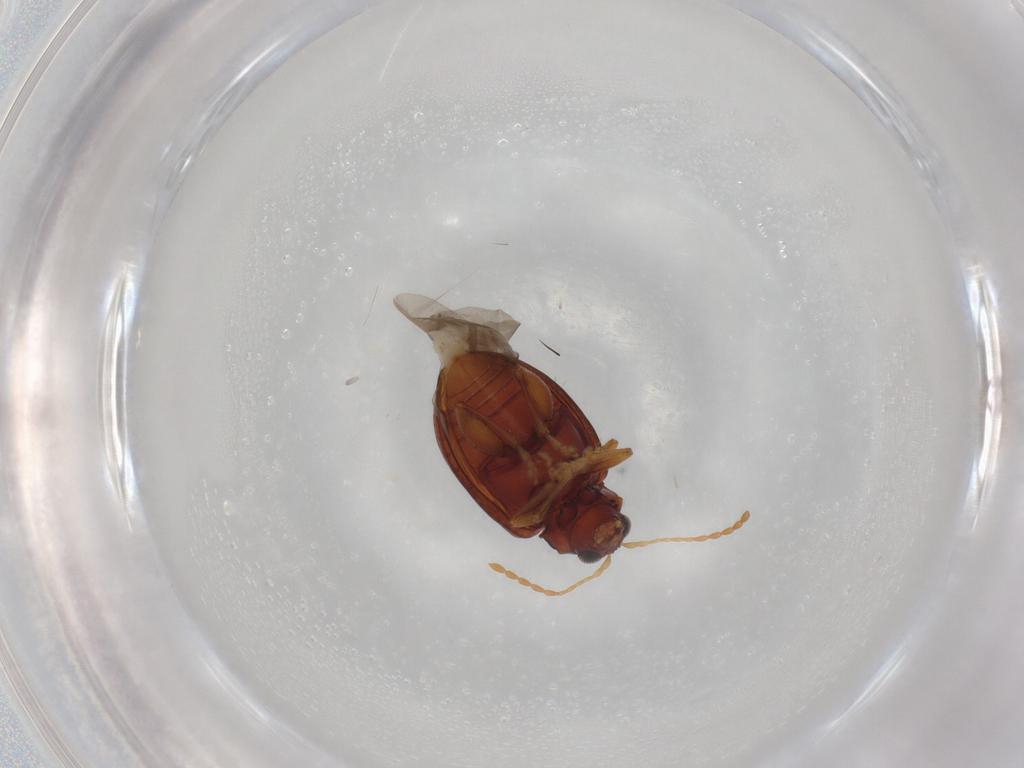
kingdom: Animalia
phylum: Arthropoda
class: Insecta
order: Coleoptera
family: Chrysomelidae
